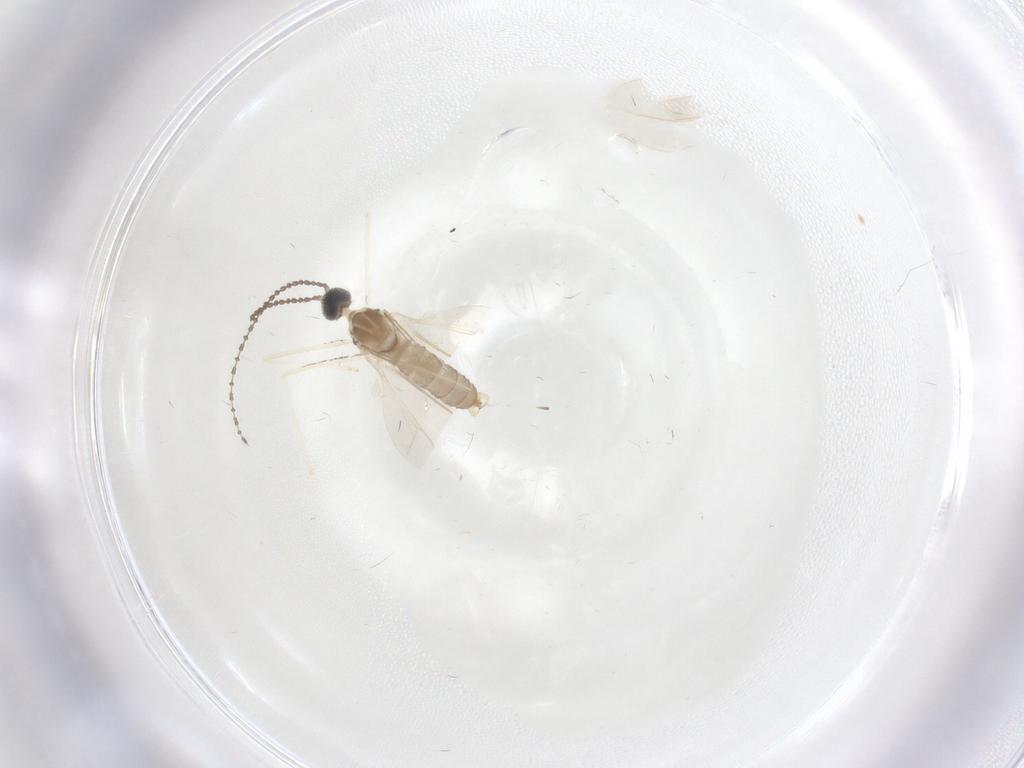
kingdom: Animalia
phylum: Arthropoda
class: Insecta
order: Diptera
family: Cecidomyiidae
